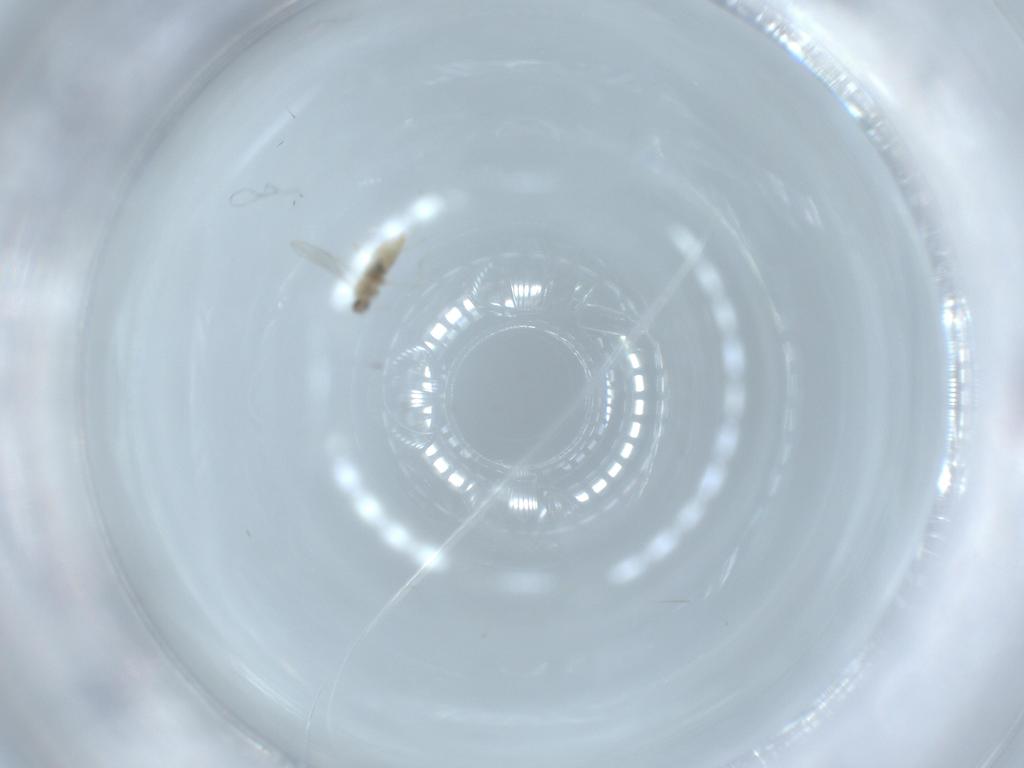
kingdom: Animalia
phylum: Arthropoda
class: Insecta
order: Diptera
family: Cecidomyiidae
